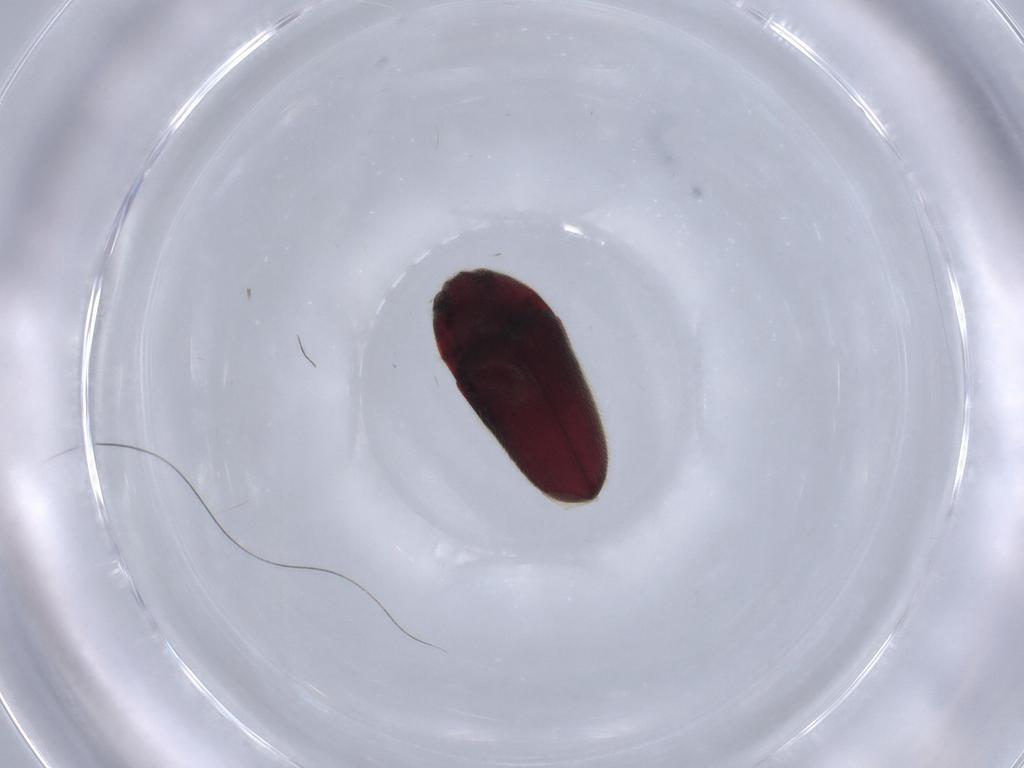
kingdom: Animalia
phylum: Arthropoda
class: Insecta
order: Coleoptera
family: Throscidae
